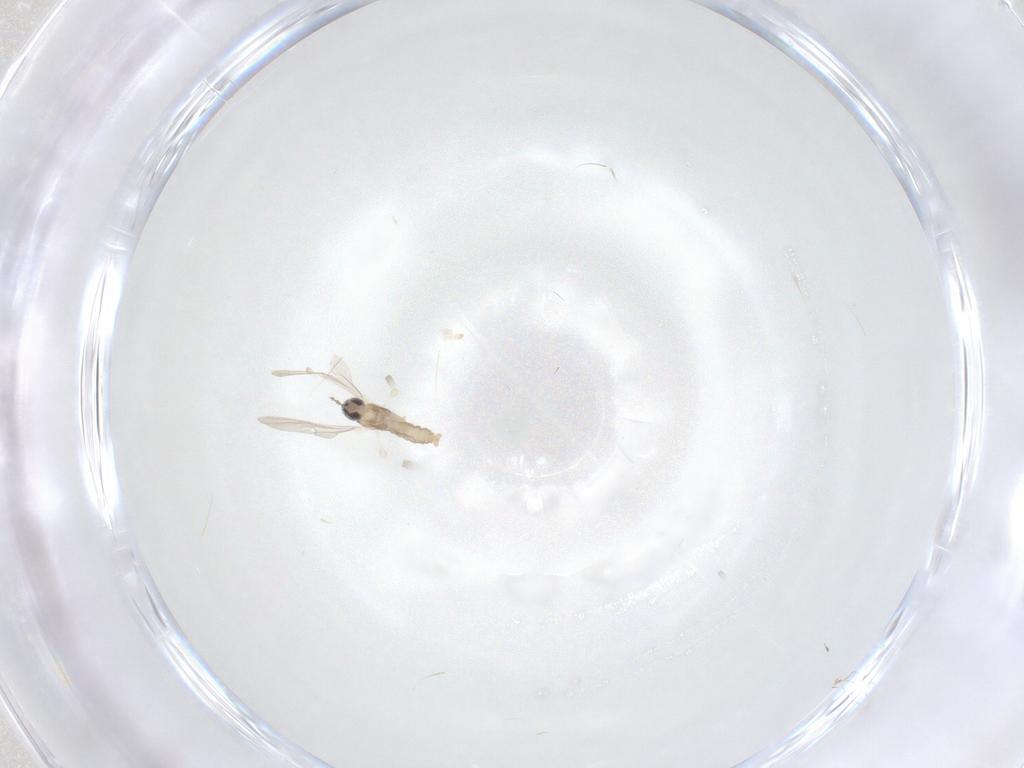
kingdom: Animalia
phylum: Arthropoda
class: Insecta
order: Diptera
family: Cecidomyiidae
